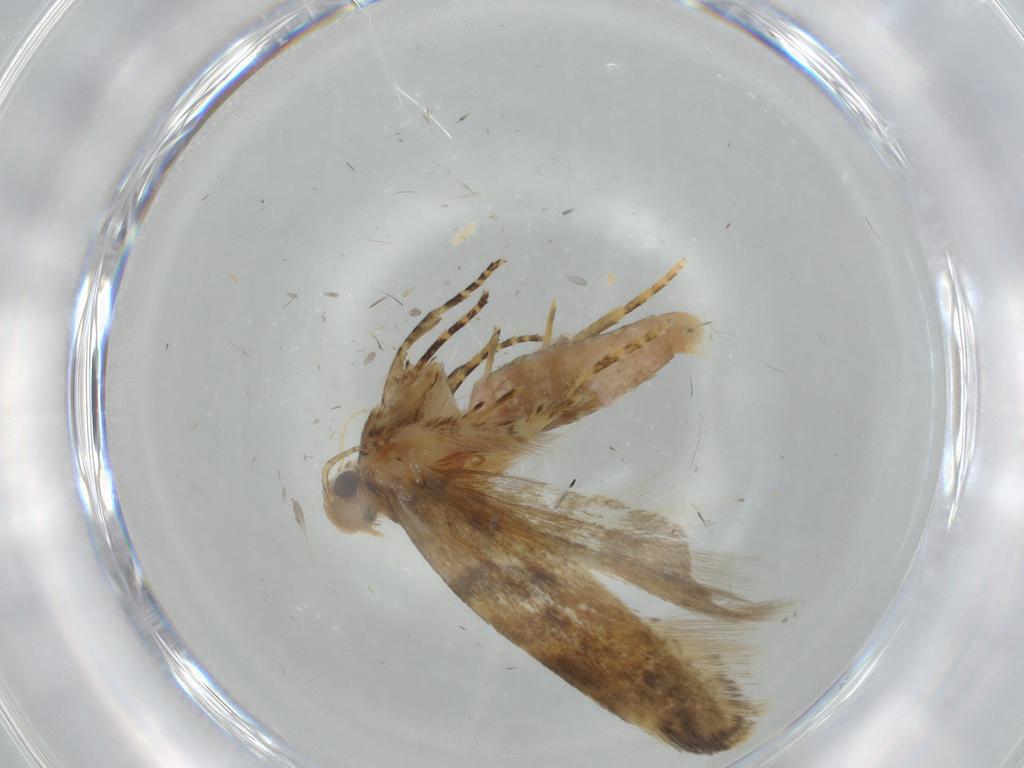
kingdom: Animalia
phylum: Arthropoda
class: Insecta
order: Lepidoptera
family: Gelechiidae
